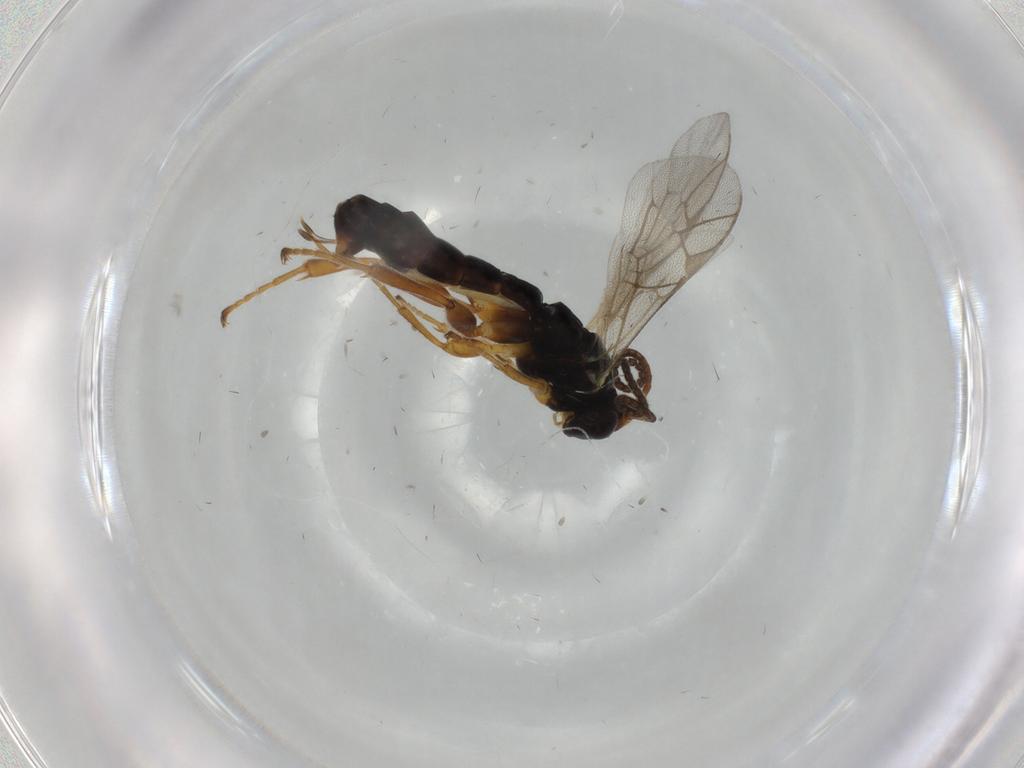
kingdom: Animalia
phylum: Arthropoda
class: Insecta
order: Hymenoptera
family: Ichneumonidae
